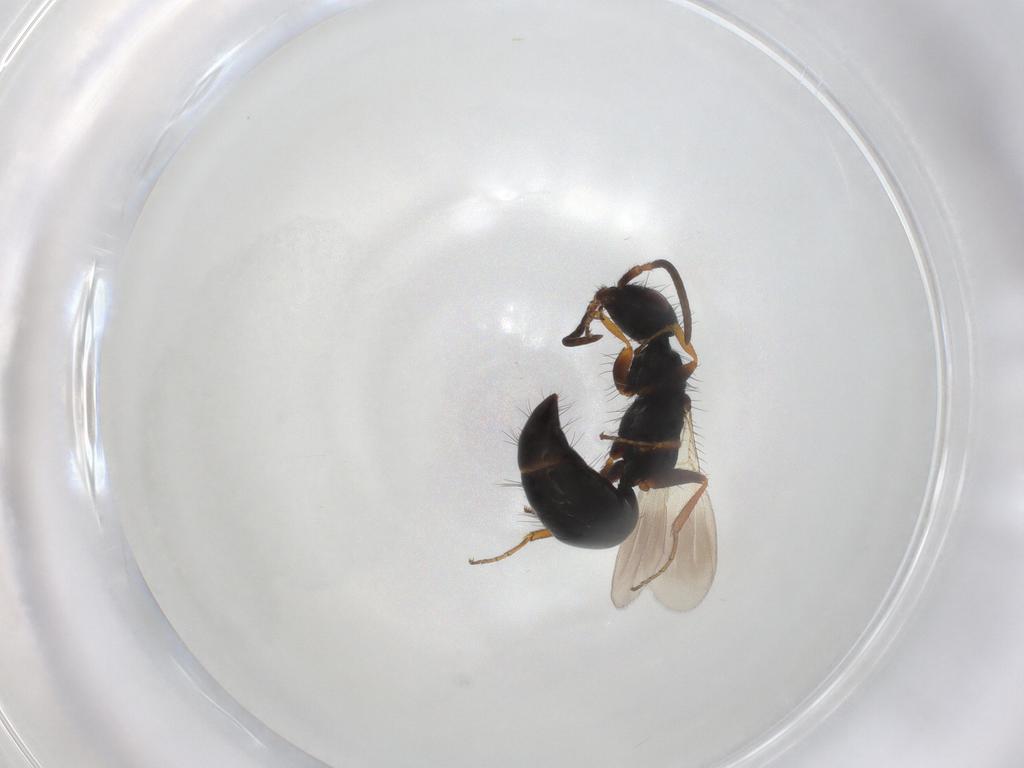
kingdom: Animalia
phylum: Arthropoda
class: Insecta
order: Hymenoptera
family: Bethylidae
